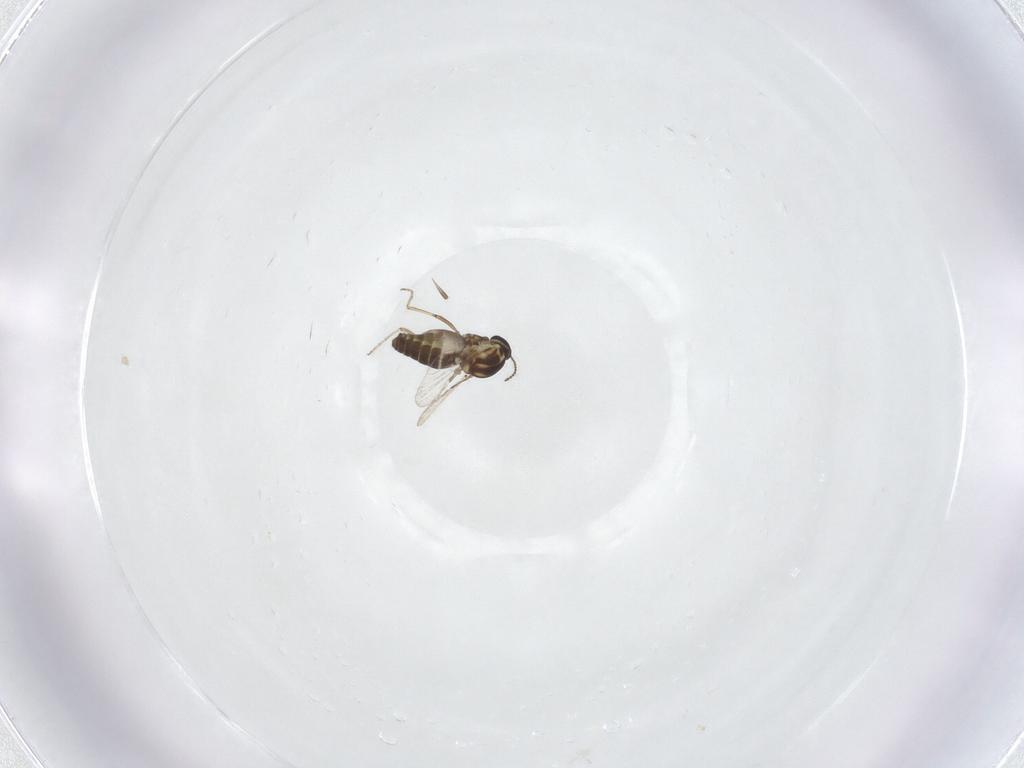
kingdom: Animalia
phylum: Arthropoda
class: Insecta
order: Diptera
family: Ceratopogonidae
